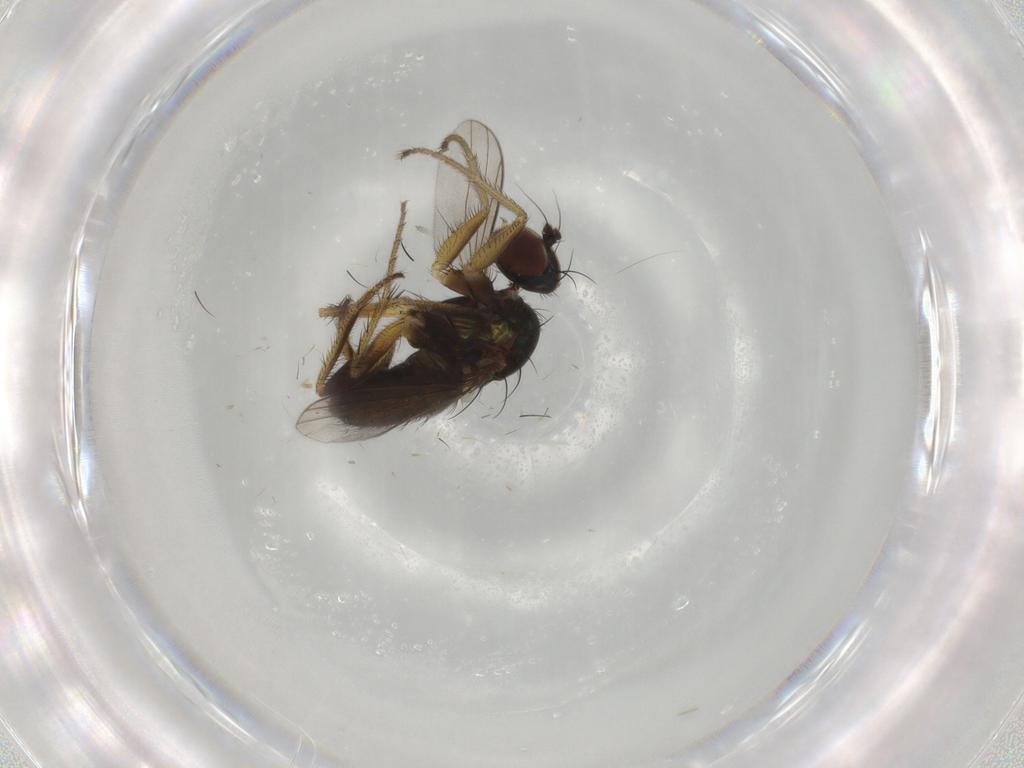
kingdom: Animalia
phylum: Arthropoda
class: Insecta
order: Diptera
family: Dolichopodidae
